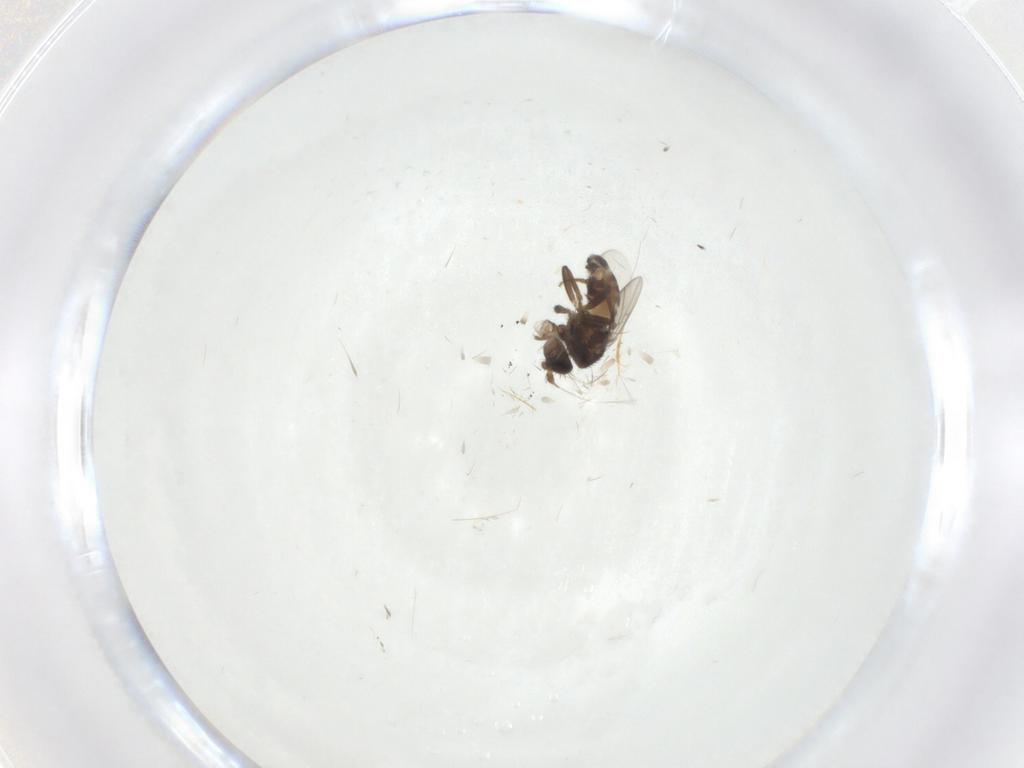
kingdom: Animalia
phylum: Arthropoda
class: Insecta
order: Diptera
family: Sphaeroceridae
